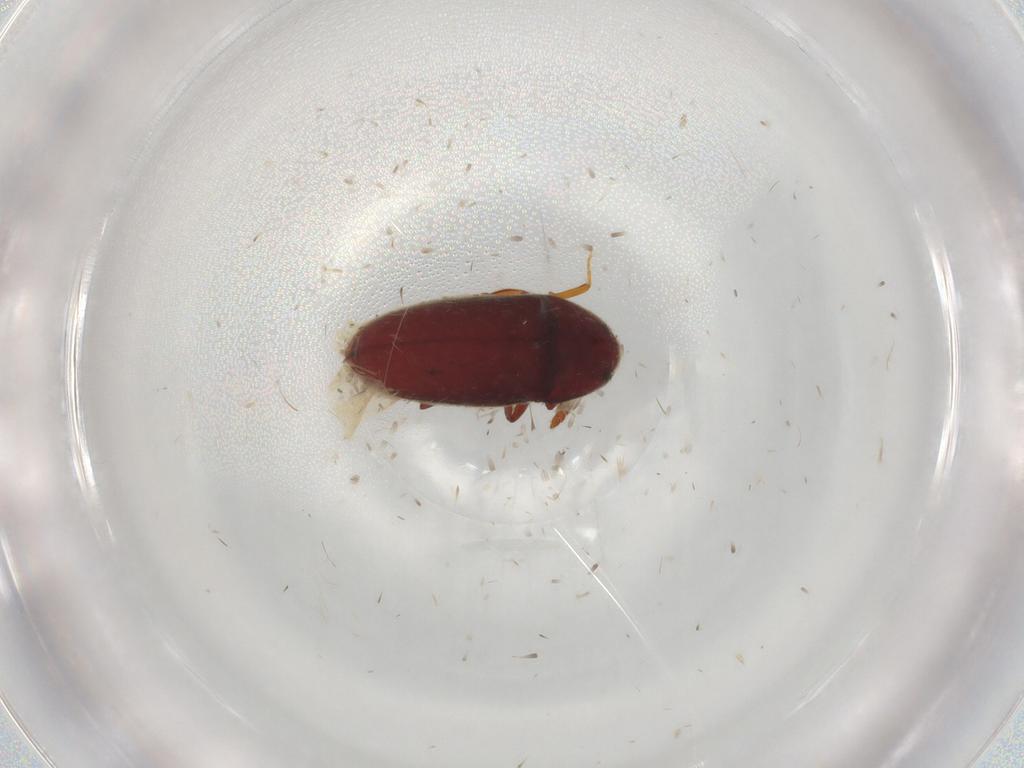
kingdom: Animalia
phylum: Arthropoda
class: Insecta
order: Coleoptera
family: Throscidae
